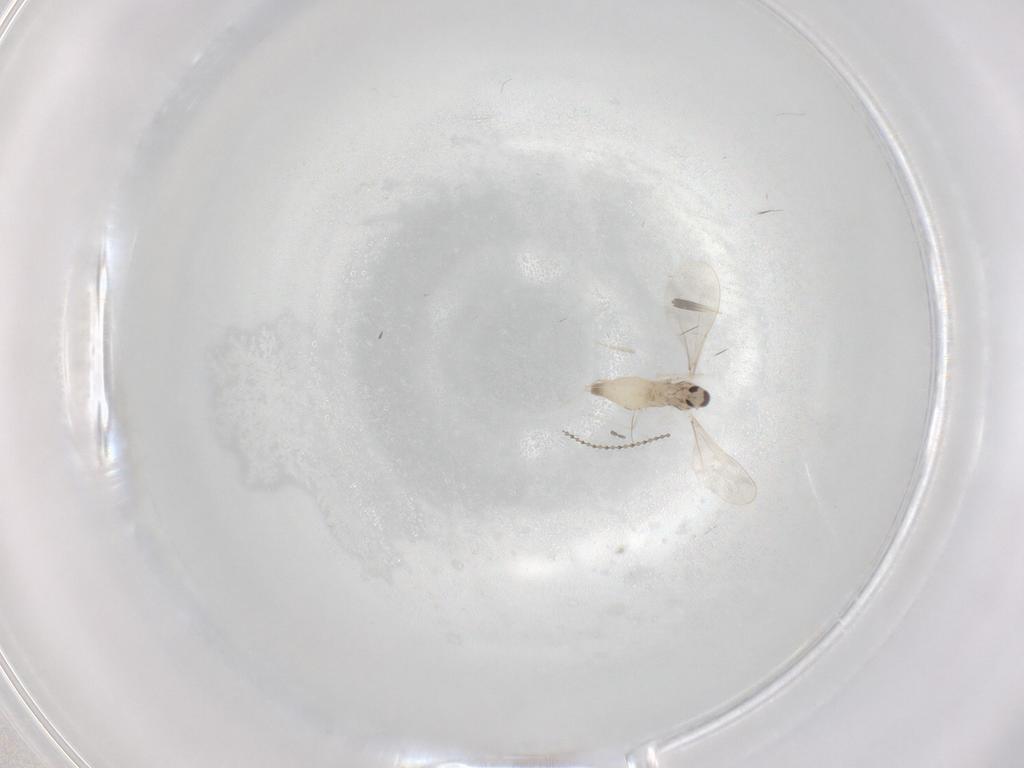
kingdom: Animalia
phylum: Arthropoda
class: Insecta
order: Diptera
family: Cecidomyiidae
